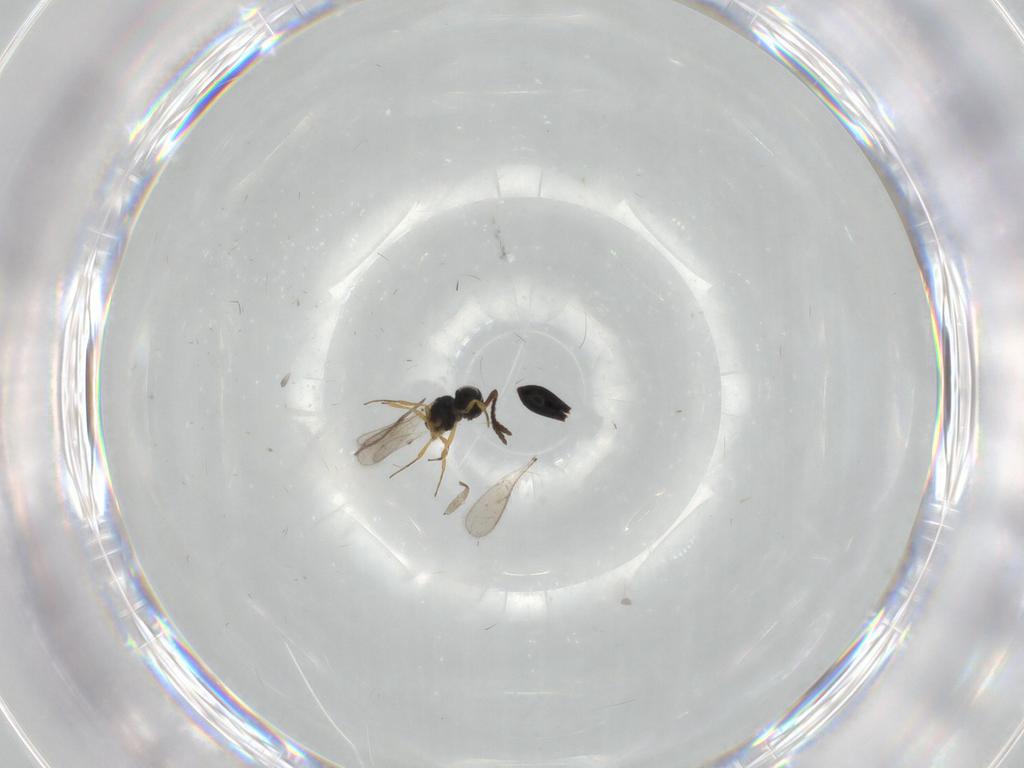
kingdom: Animalia
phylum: Arthropoda
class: Insecta
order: Hymenoptera
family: Scelionidae
